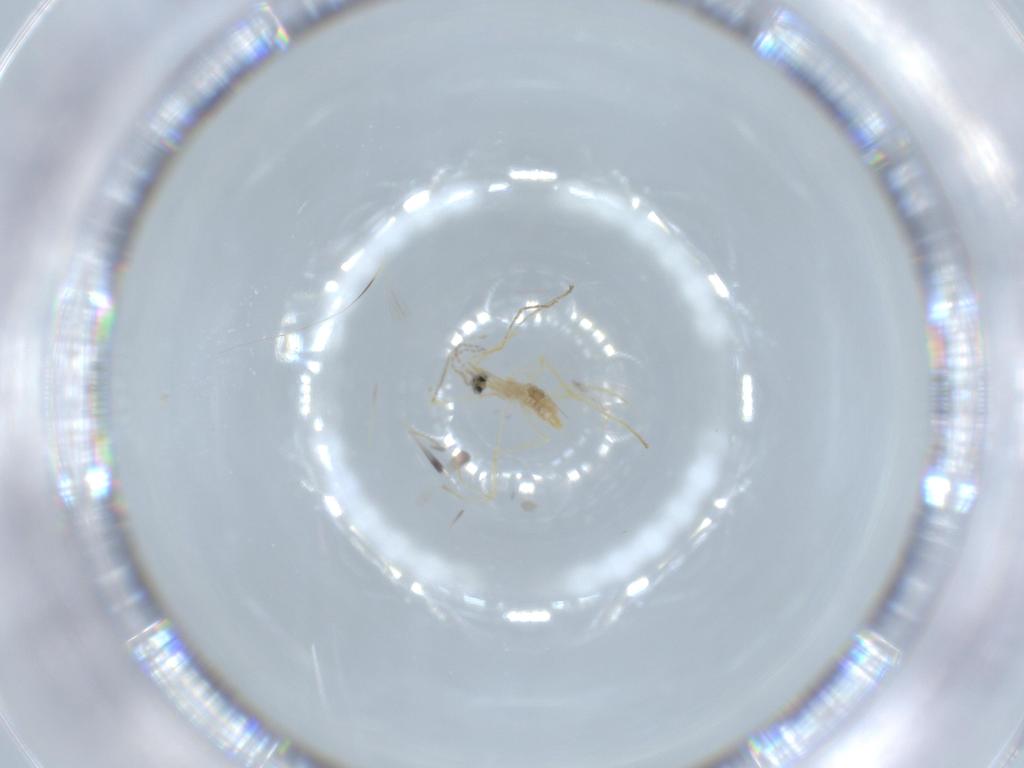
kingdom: Animalia
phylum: Arthropoda
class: Insecta
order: Diptera
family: Cecidomyiidae
